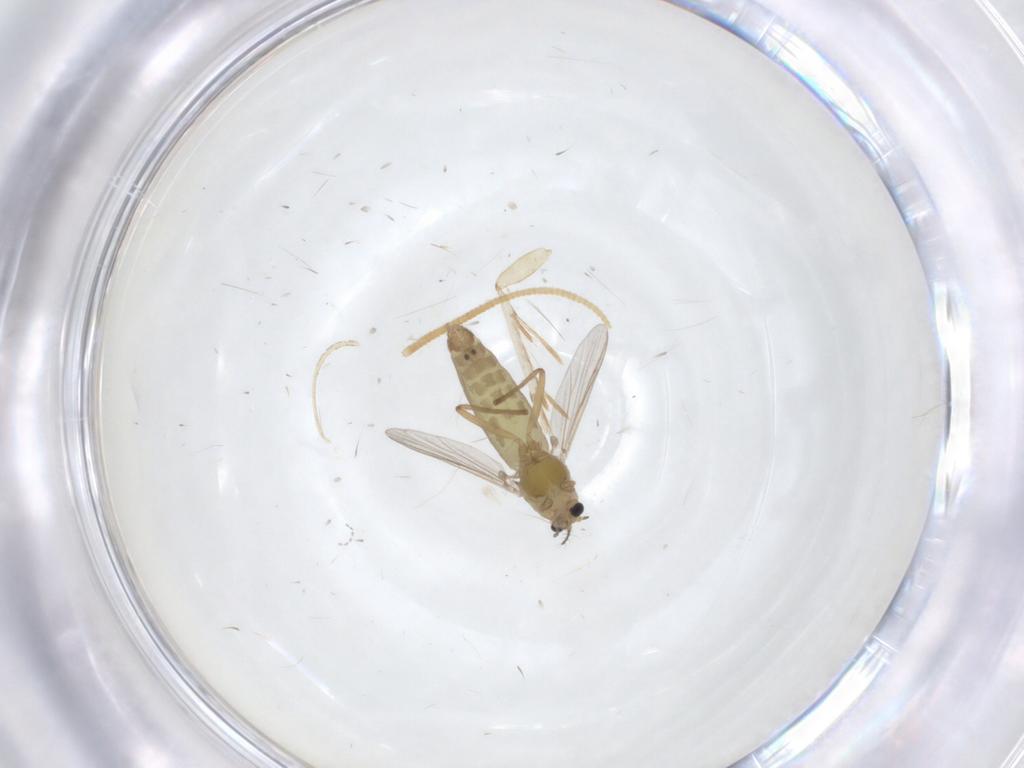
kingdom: Animalia
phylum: Arthropoda
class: Insecta
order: Diptera
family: Chironomidae
